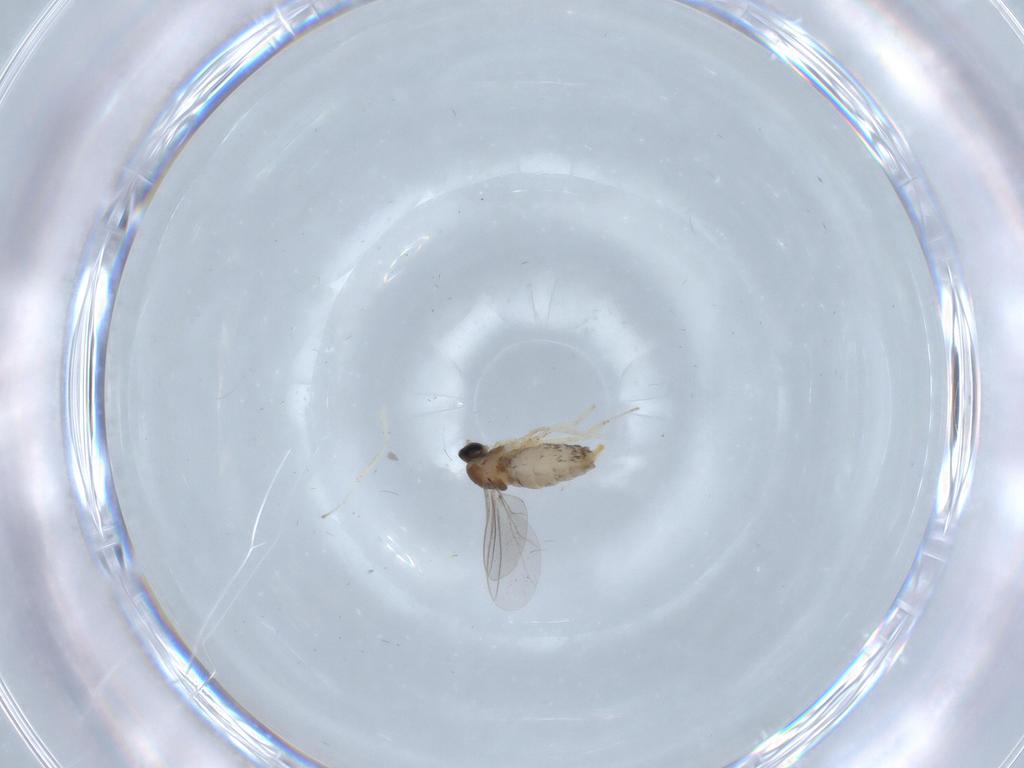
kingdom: Animalia
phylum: Arthropoda
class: Insecta
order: Diptera
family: Cecidomyiidae
